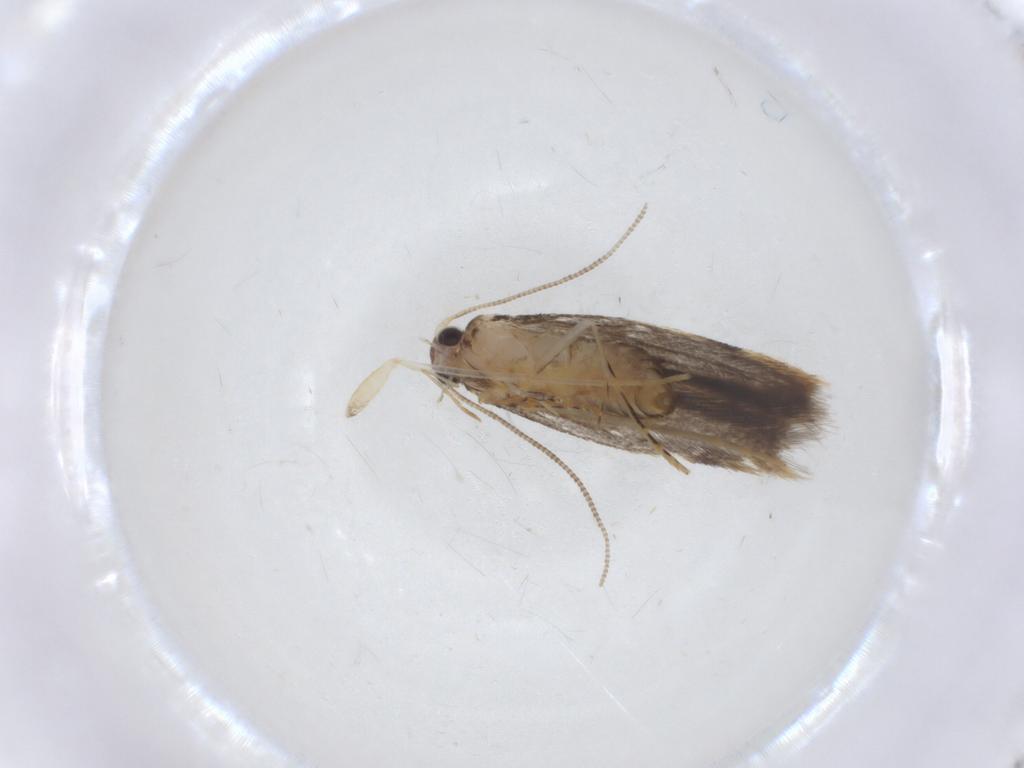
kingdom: Animalia
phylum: Arthropoda
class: Insecta
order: Lepidoptera
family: Tineidae
